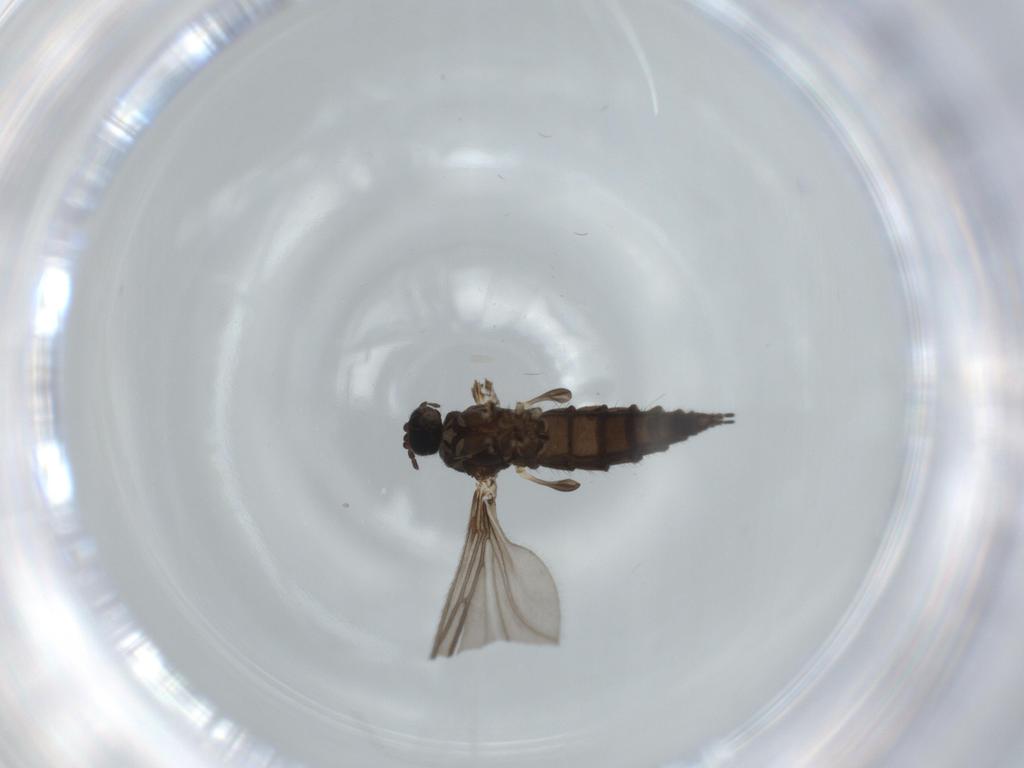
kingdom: Animalia
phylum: Arthropoda
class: Insecta
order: Diptera
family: Sciaridae
